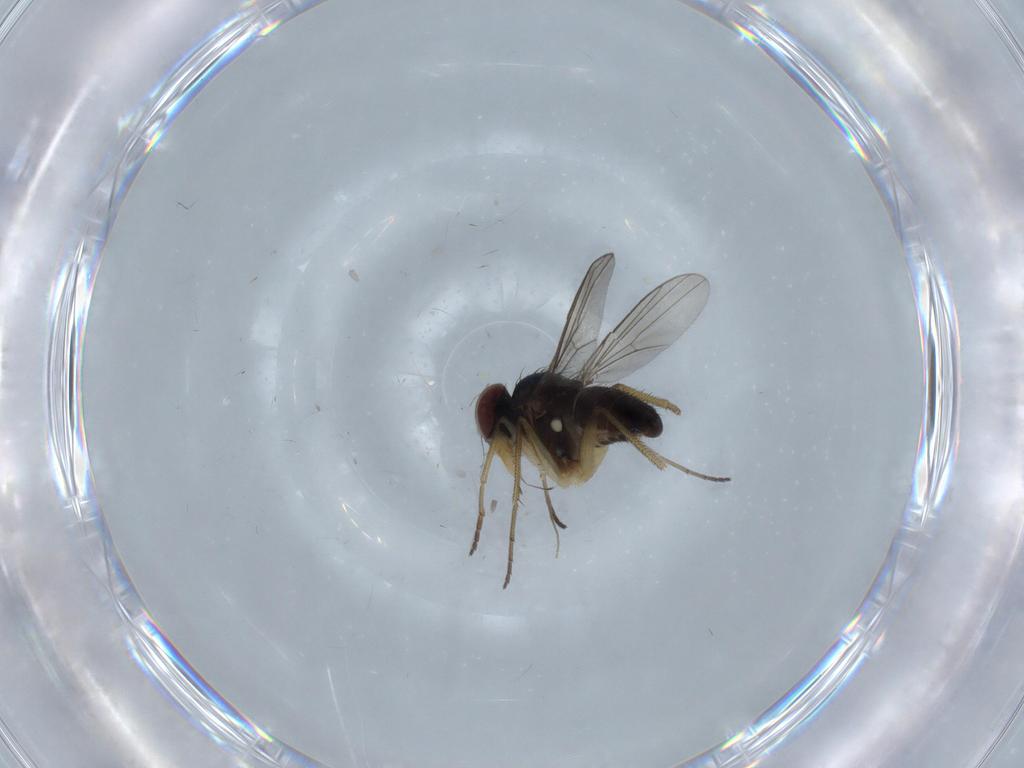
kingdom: Animalia
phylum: Arthropoda
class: Insecta
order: Diptera
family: Dolichopodidae
